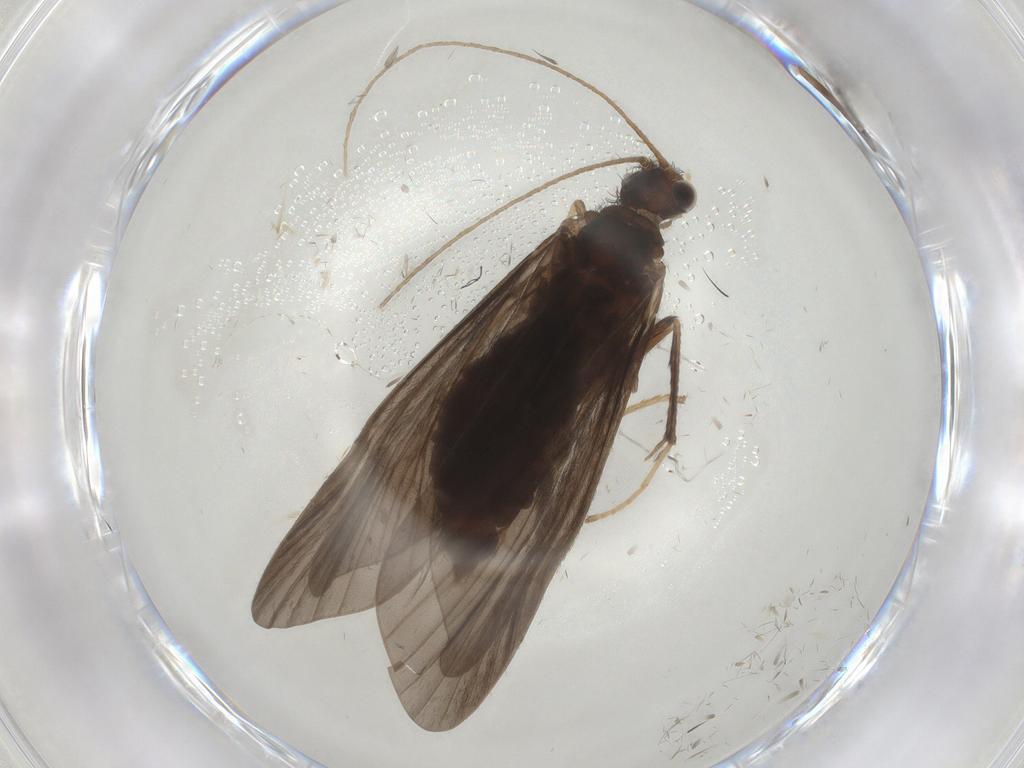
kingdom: Animalia
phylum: Arthropoda
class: Insecta
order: Trichoptera
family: Hydropsychidae
